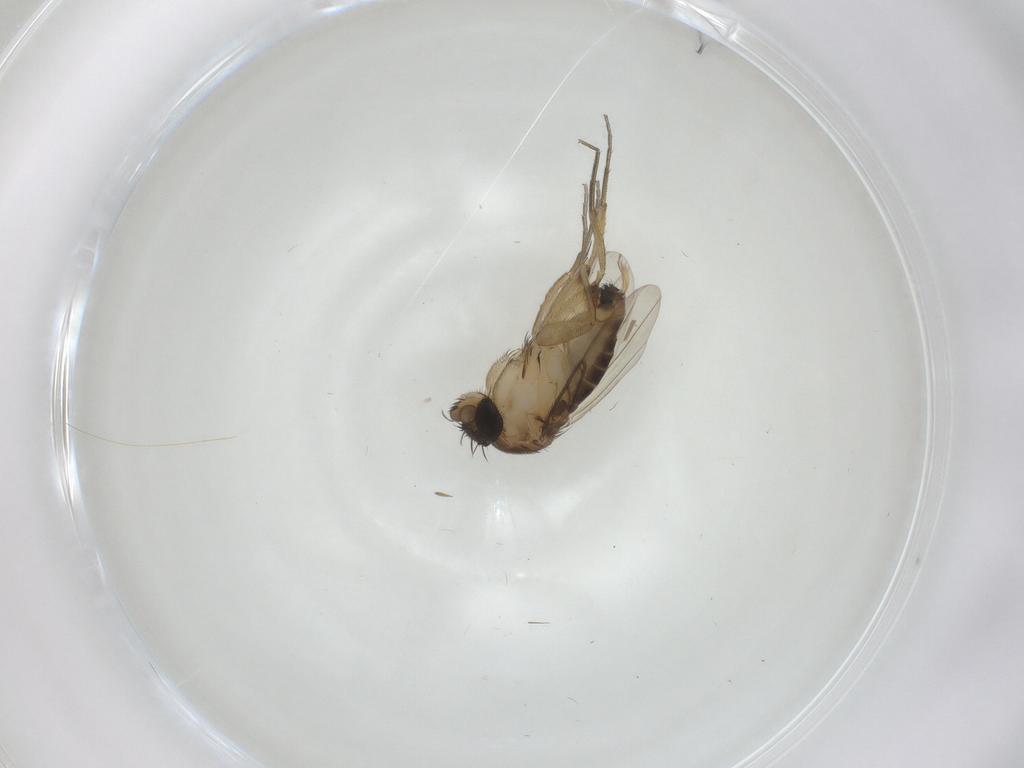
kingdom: Animalia
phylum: Arthropoda
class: Insecta
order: Diptera
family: Phoridae
